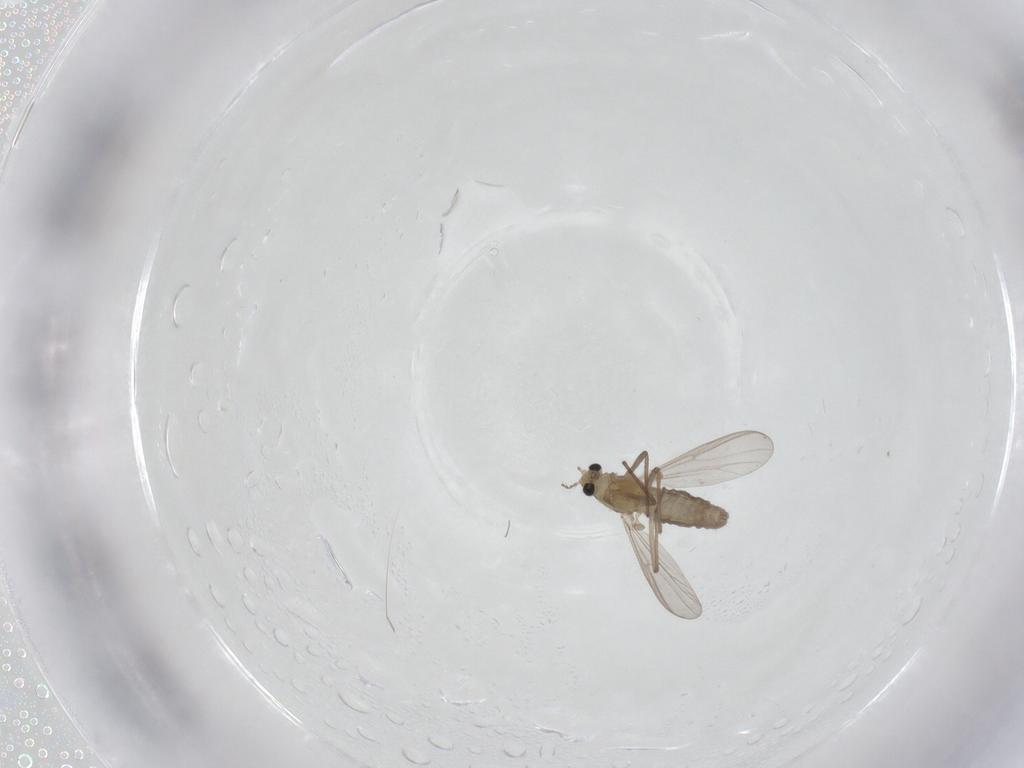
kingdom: Animalia
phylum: Arthropoda
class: Insecta
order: Diptera
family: Chironomidae
